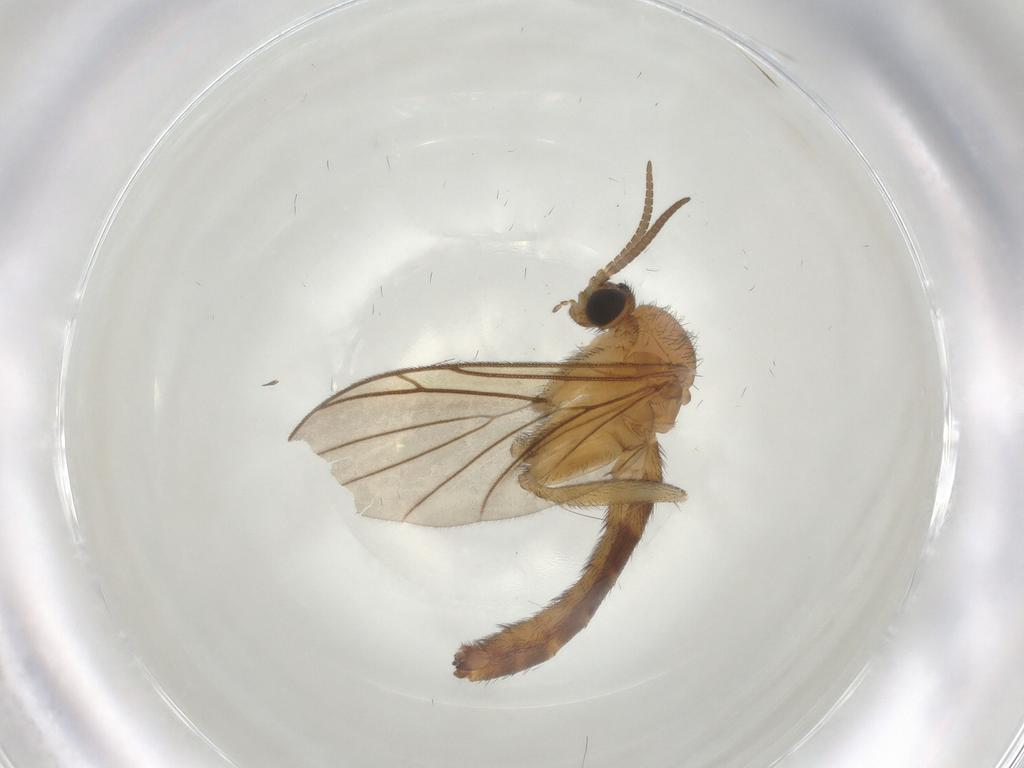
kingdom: Animalia
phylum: Arthropoda
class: Insecta
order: Diptera
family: Keroplatidae
